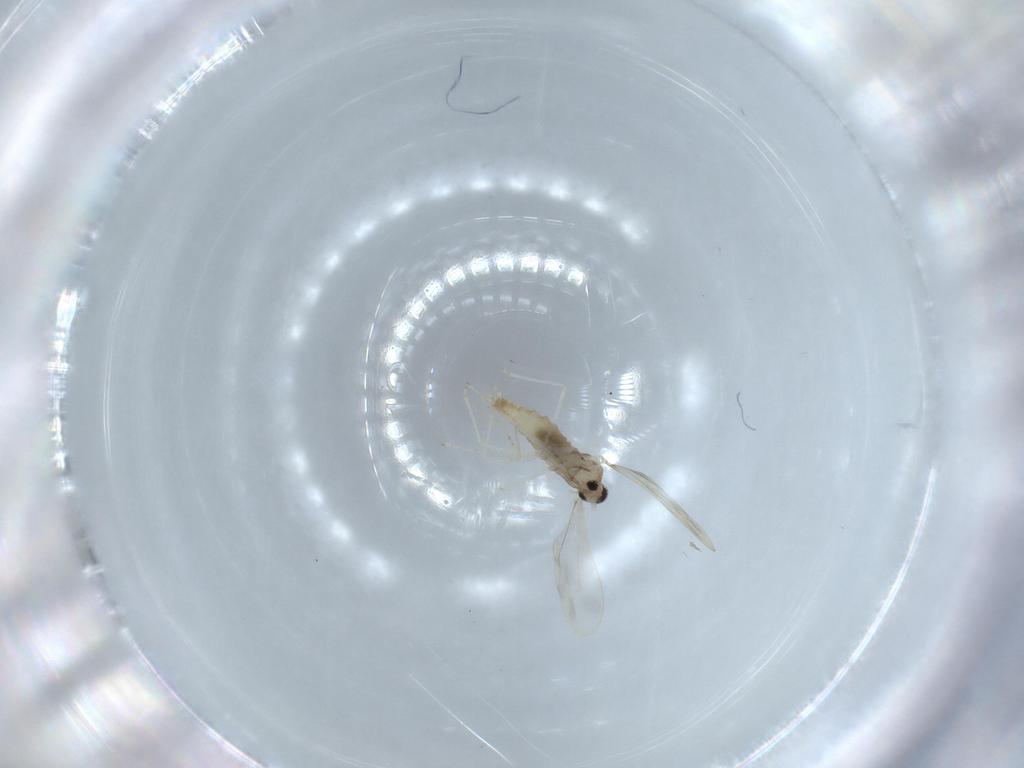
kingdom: Animalia
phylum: Arthropoda
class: Insecta
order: Diptera
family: Cecidomyiidae
